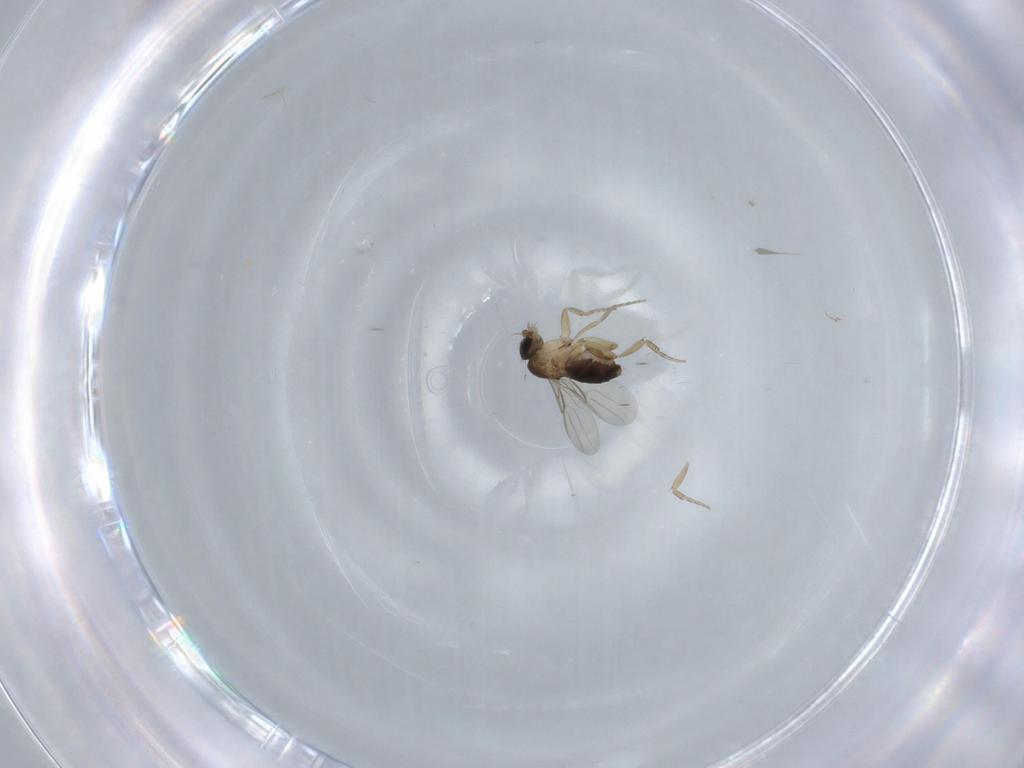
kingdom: Animalia
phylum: Arthropoda
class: Insecta
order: Diptera
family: Phoridae
